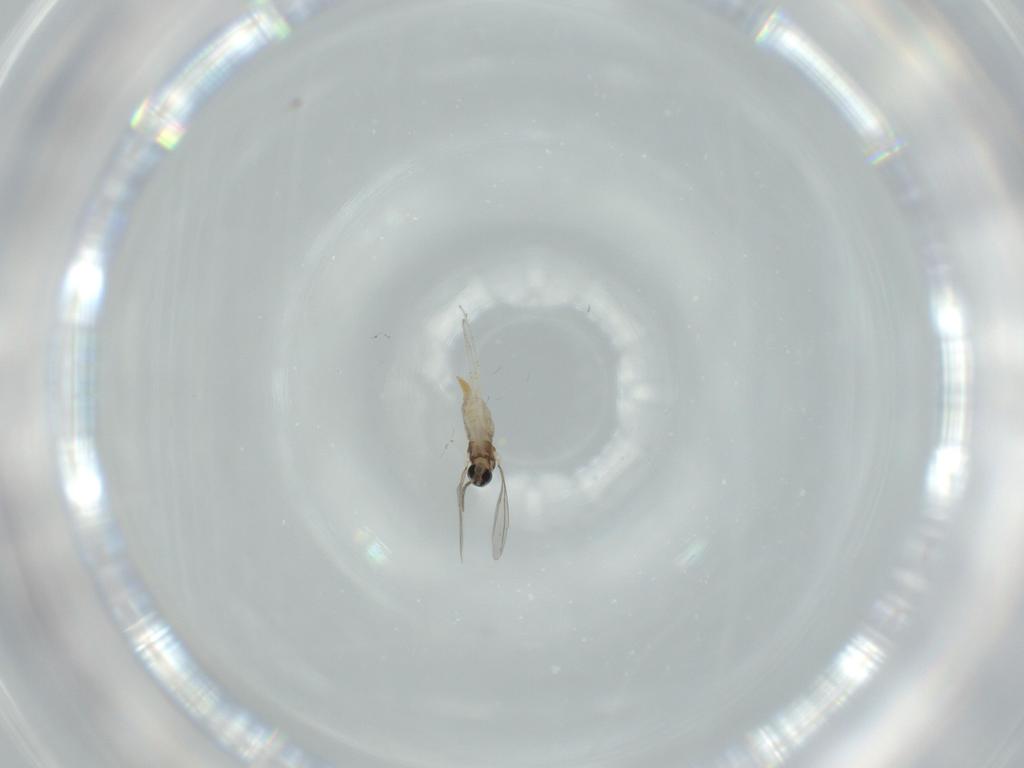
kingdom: Animalia
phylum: Arthropoda
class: Insecta
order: Diptera
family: Cecidomyiidae
